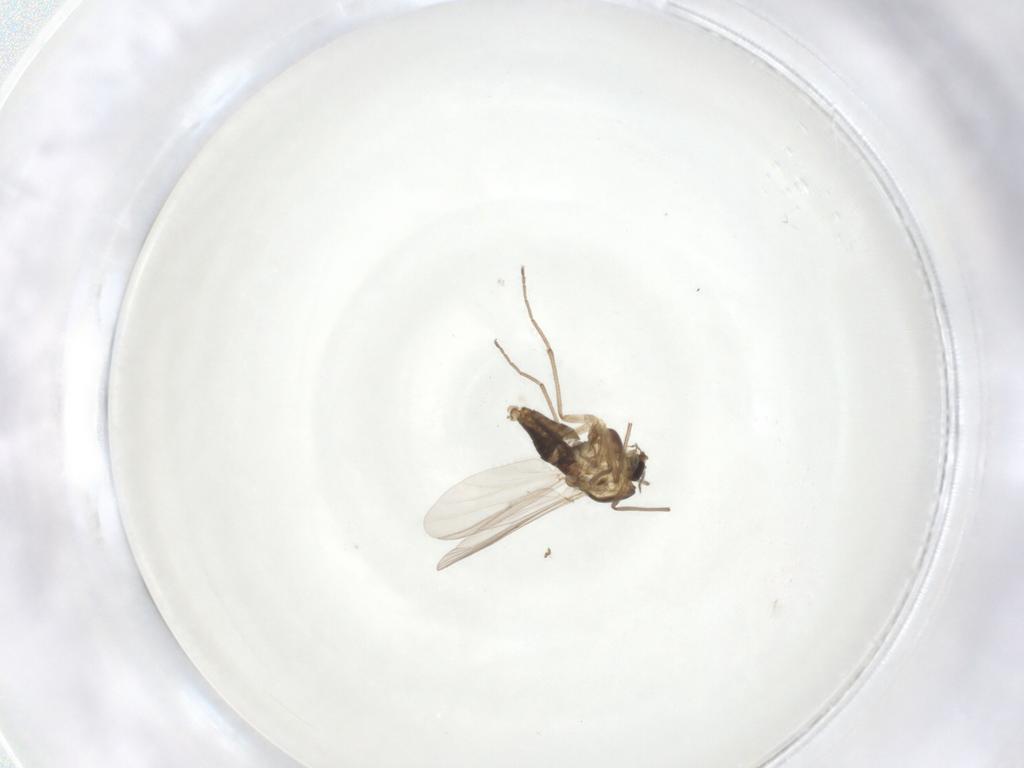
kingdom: Animalia
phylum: Arthropoda
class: Insecta
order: Diptera
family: Chironomidae
